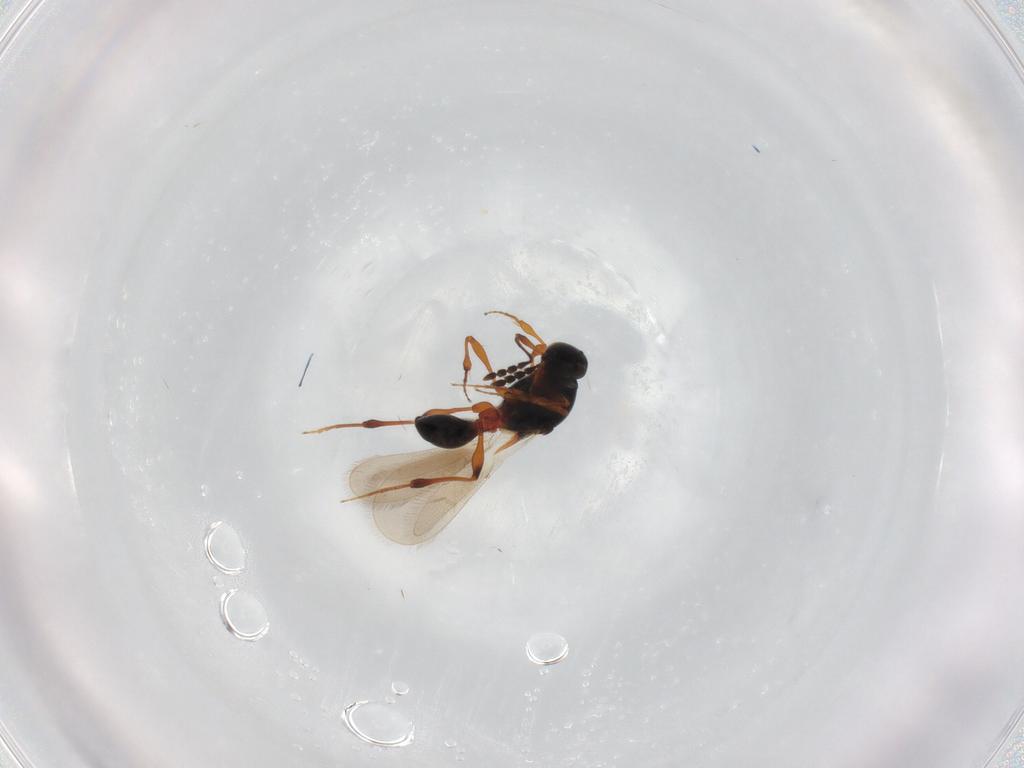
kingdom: Animalia
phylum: Arthropoda
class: Insecta
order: Hymenoptera
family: Platygastridae
